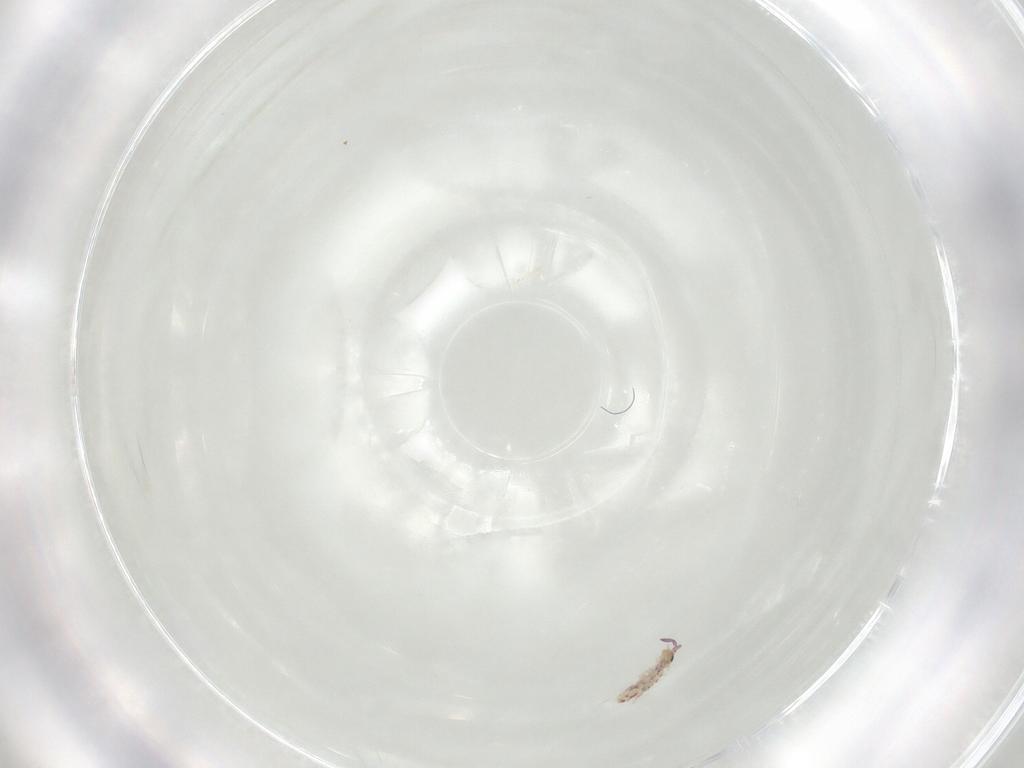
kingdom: Animalia
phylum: Arthropoda
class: Collembola
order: Entomobryomorpha
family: Entomobryidae
